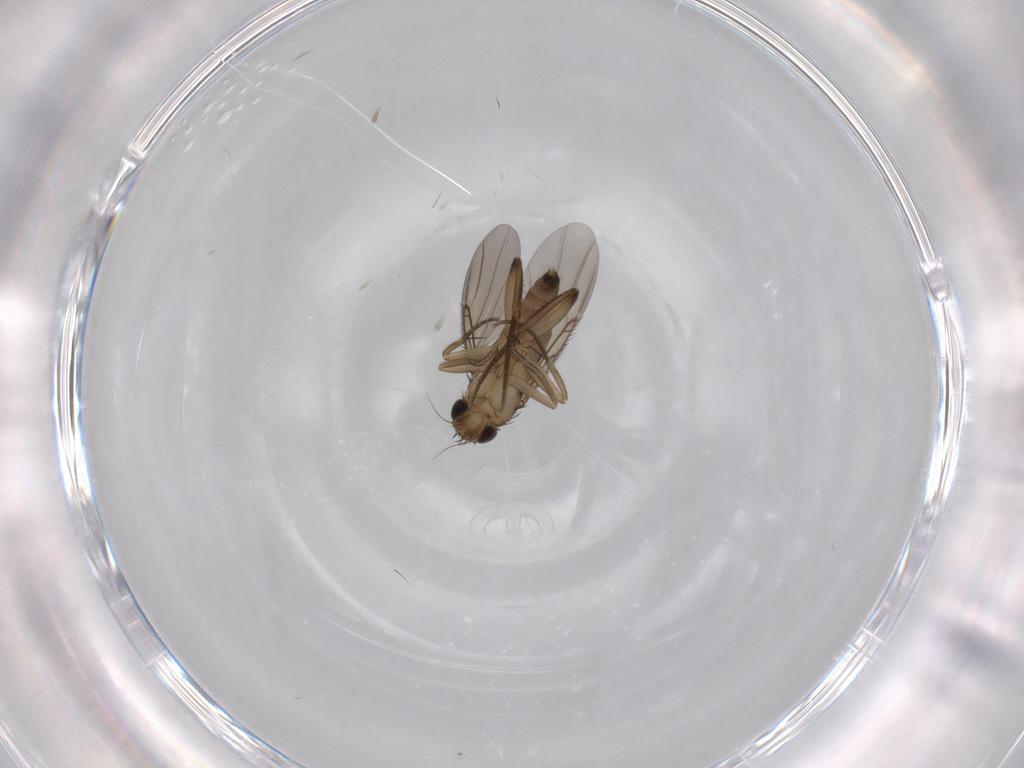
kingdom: Animalia
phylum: Arthropoda
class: Insecta
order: Diptera
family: Phoridae
